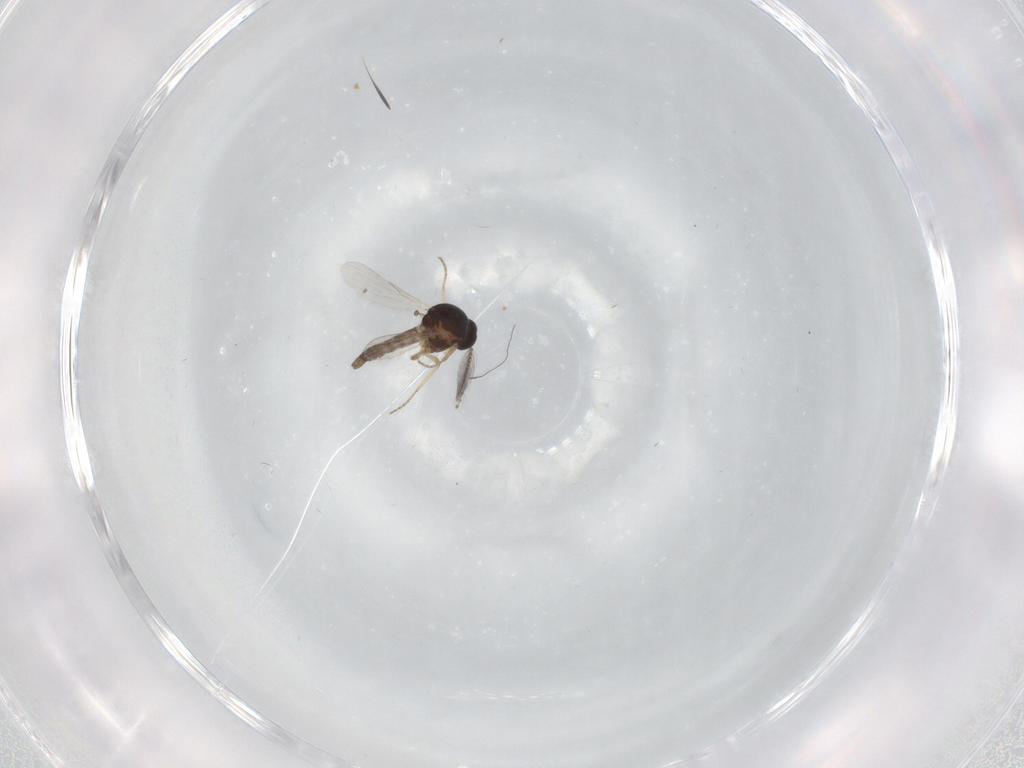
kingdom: Animalia
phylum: Arthropoda
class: Insecta
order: Diptera
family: Ceratopogonidae
